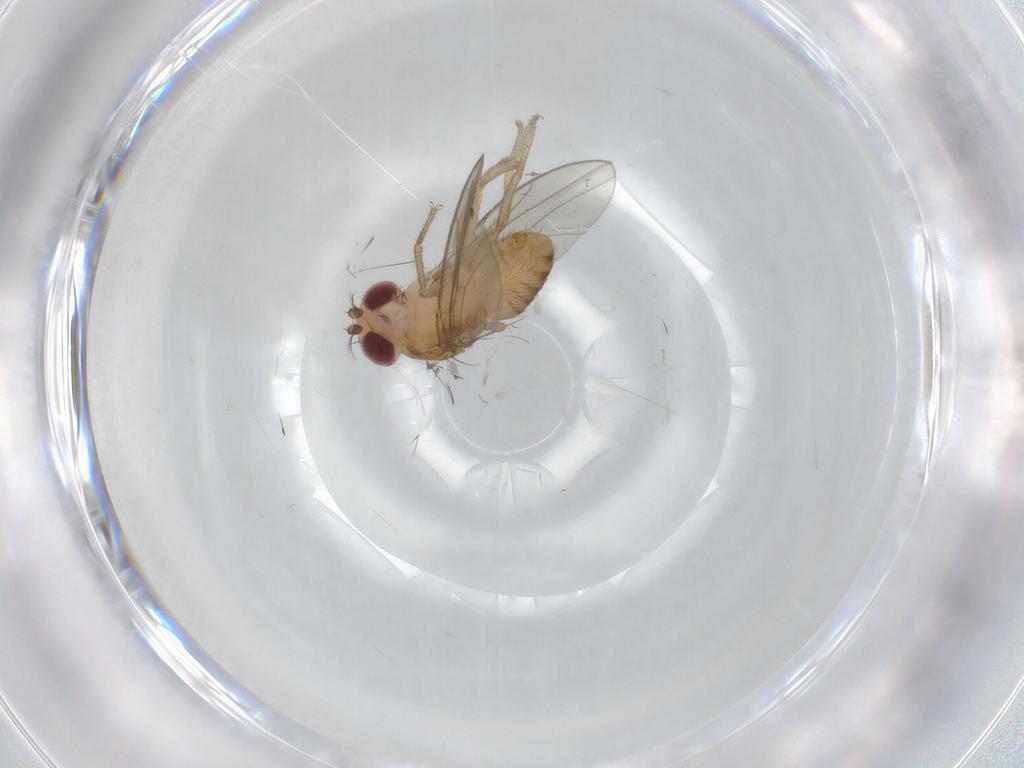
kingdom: Animalia
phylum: Arthropoda
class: Insecta
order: Diptera
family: Drosophilidae
